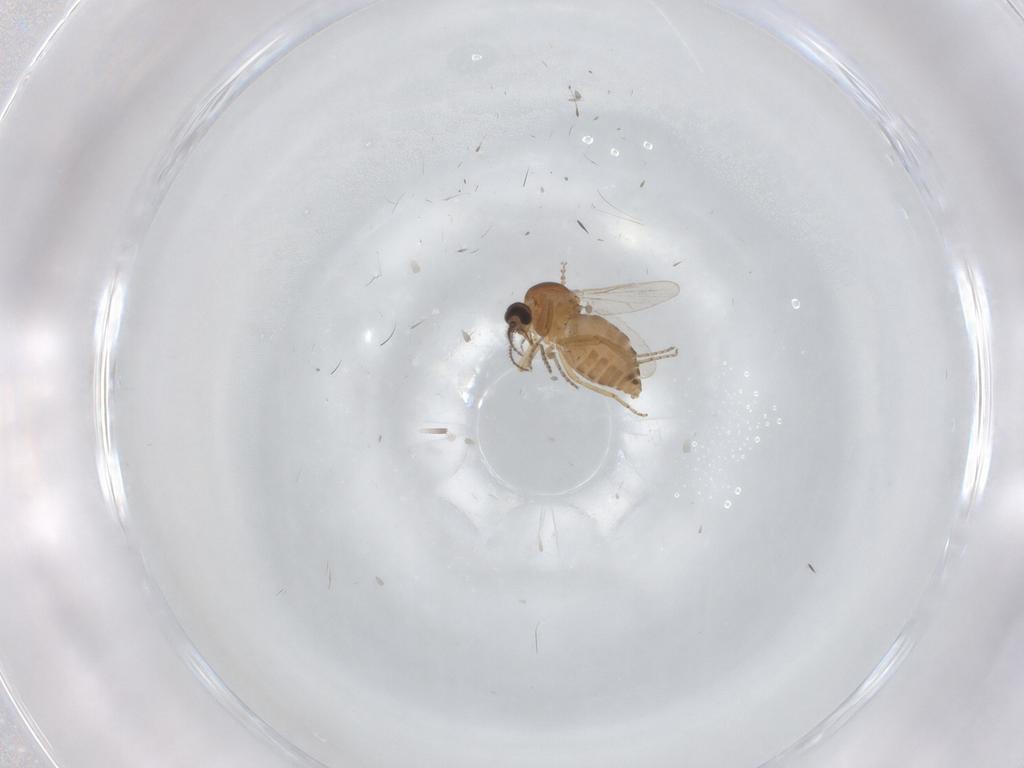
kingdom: Animalia
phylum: Arthropoda
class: Insecta
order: Diptera
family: Ceratopogonidae
